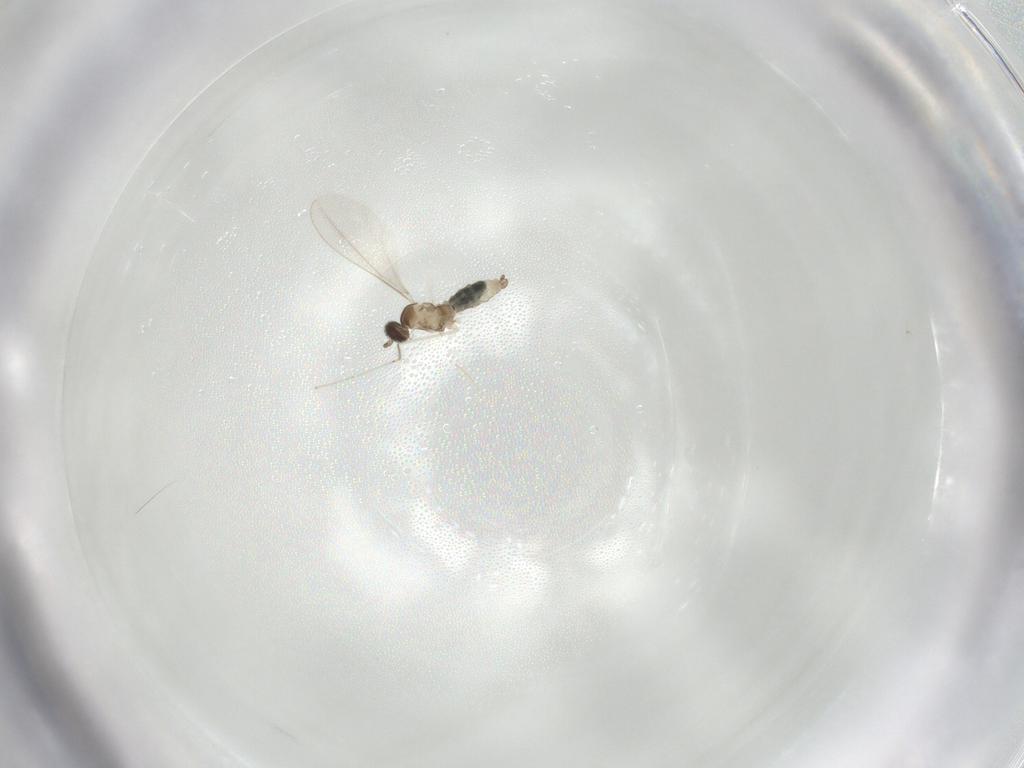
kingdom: Animalia
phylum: Arthropoda
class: Insecta
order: Diptera
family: Cecidomyiidae
